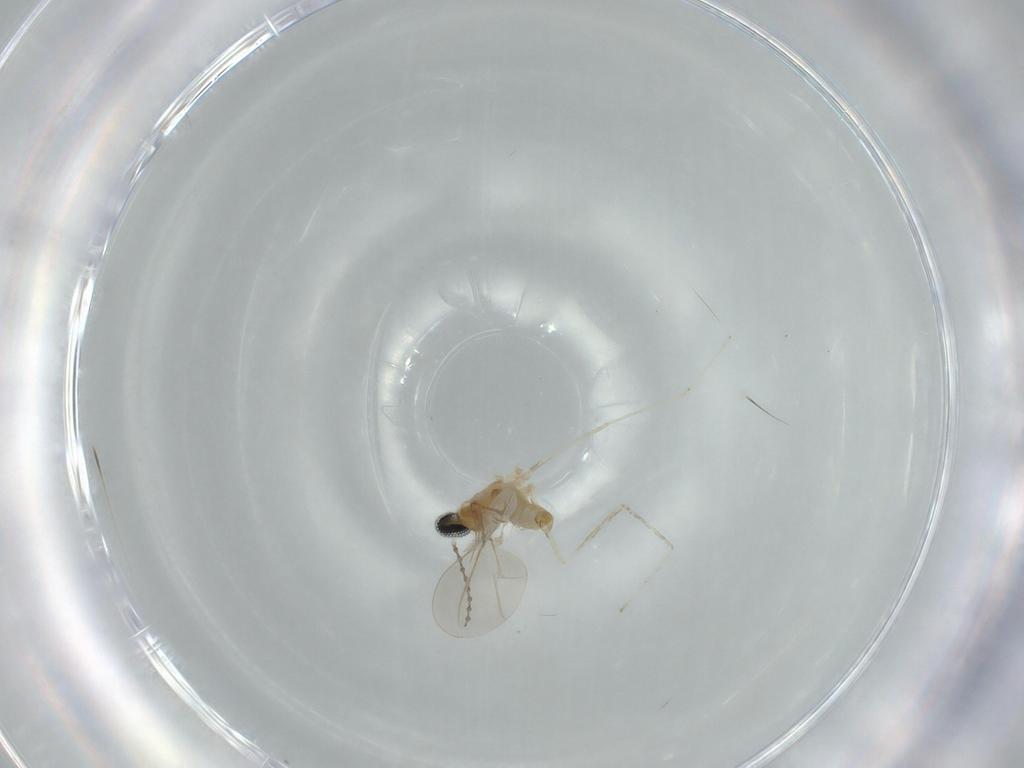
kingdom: Animalia
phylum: Arthropoda
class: Insecta
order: Diptera
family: Cecidomyiidae
